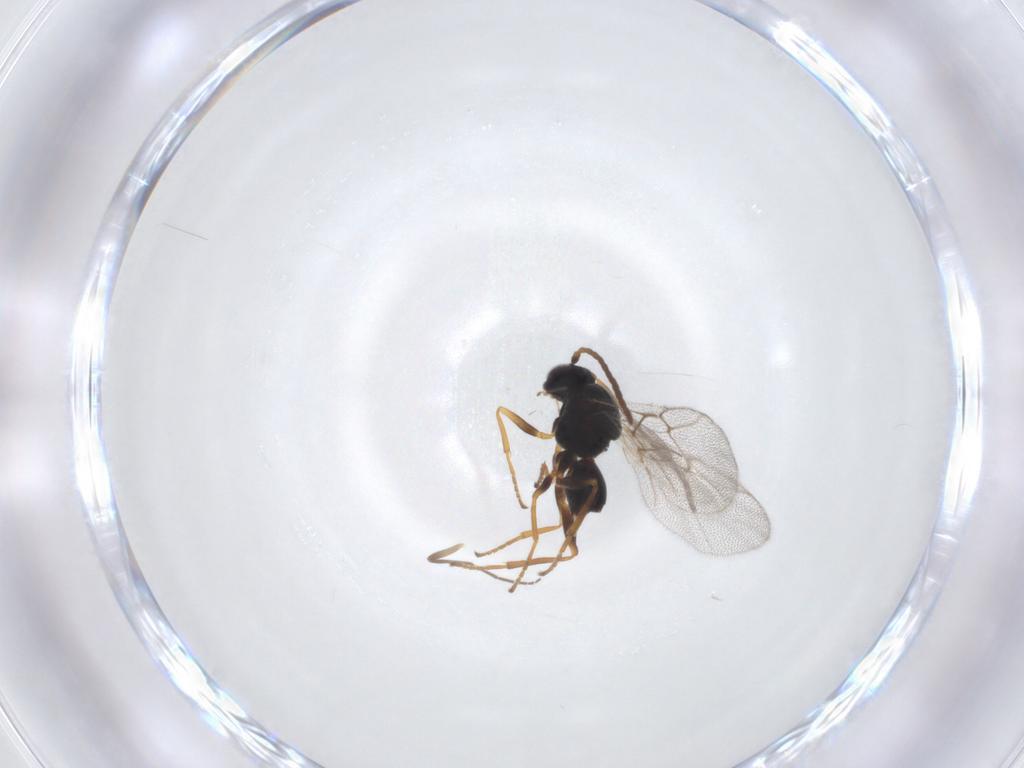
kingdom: Animalia
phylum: Arthropoda
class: Insecta
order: Hymenoptera
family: Cynipidae
